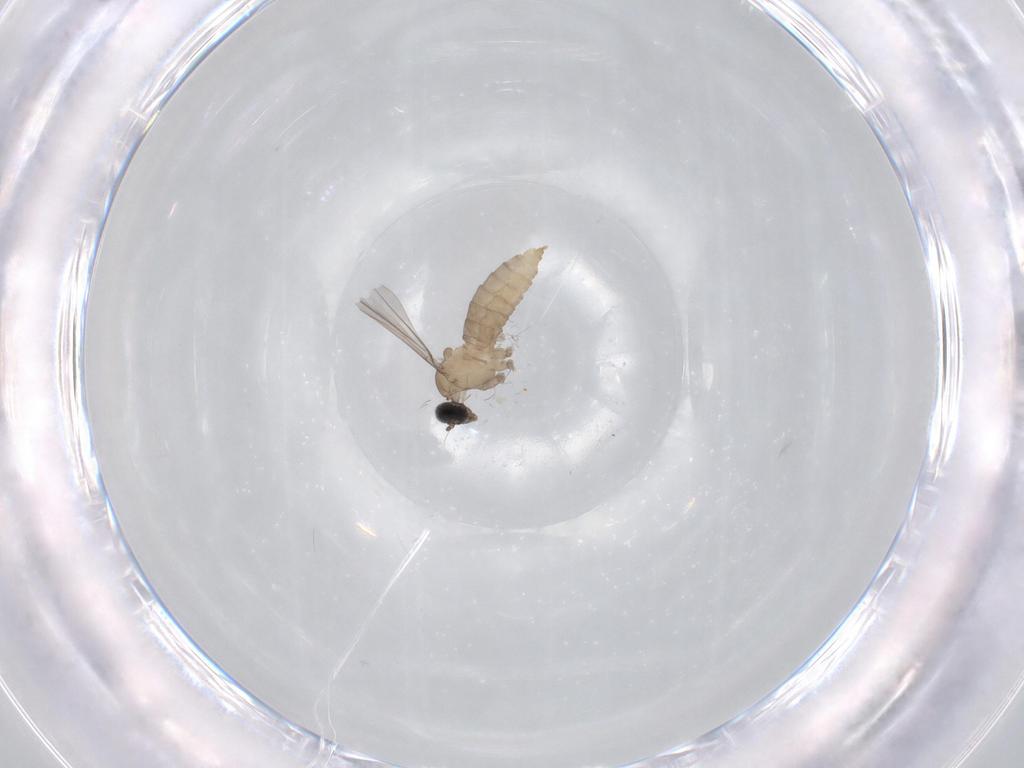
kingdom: Animalia
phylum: Arthropoda
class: Insecta
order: Diptera
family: Cecidomyiidae
